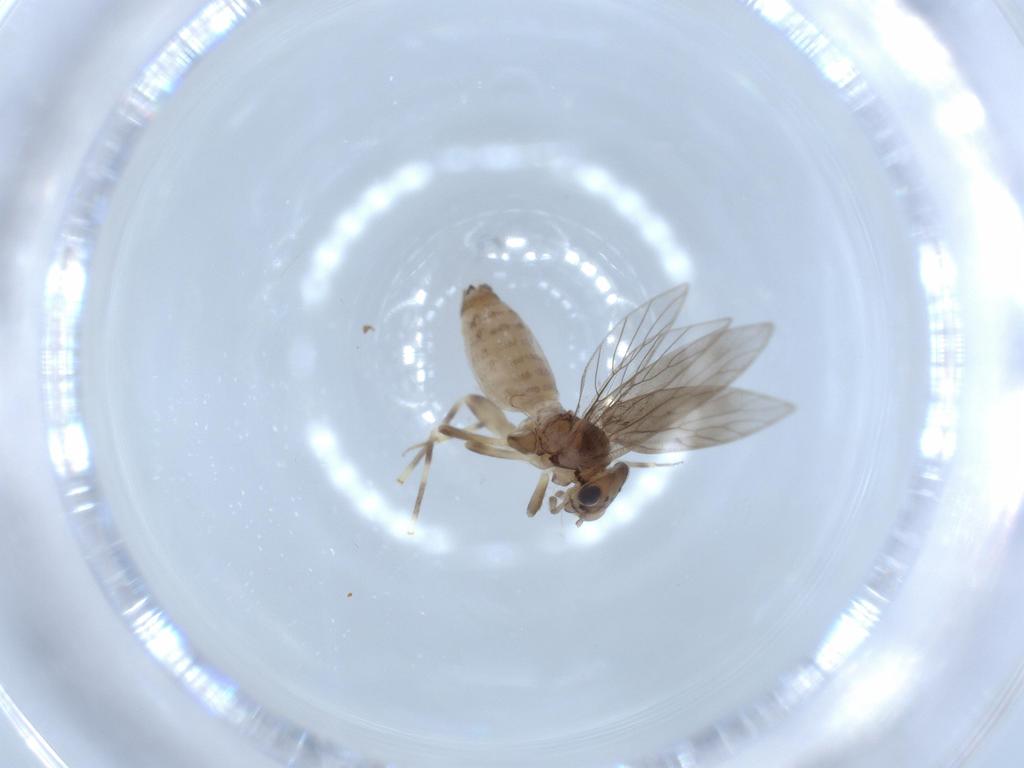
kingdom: Animalia
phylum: Arthropoda
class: Insecta
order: Psocodea
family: Lepidopsocidae
